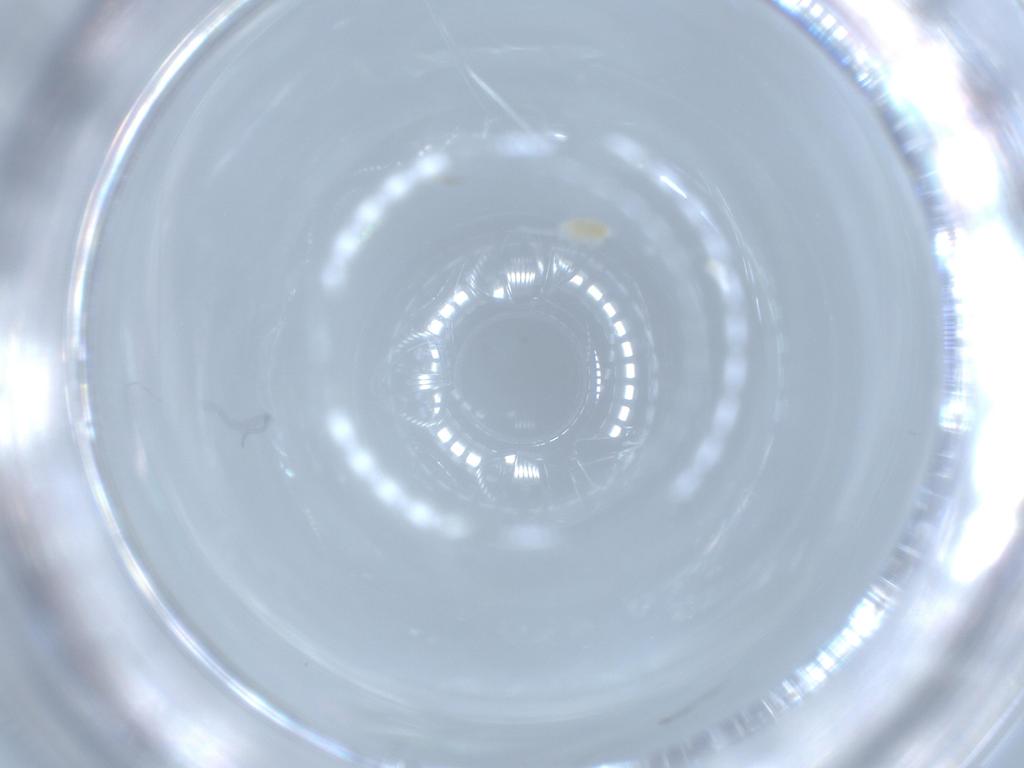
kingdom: Animalia
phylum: Arthropoda
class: Arachnida
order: Trombidiformes
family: Eupodidae
